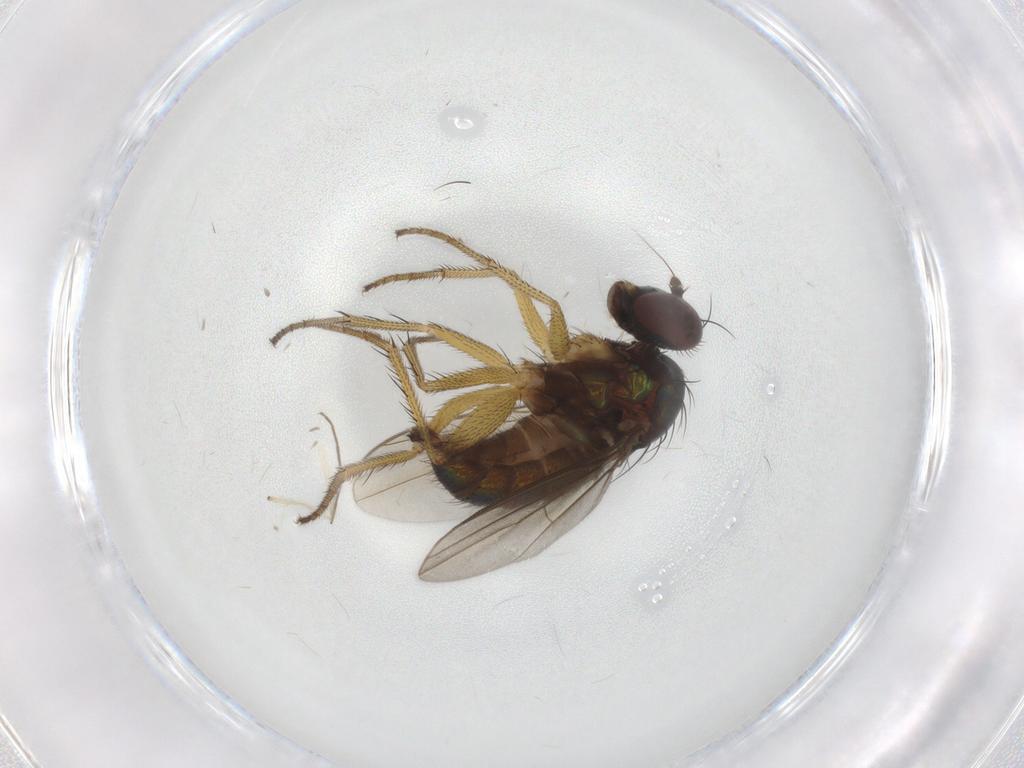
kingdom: Animalia
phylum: Arthropoda
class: Insecta
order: Diptera
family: Dolichopodidae
